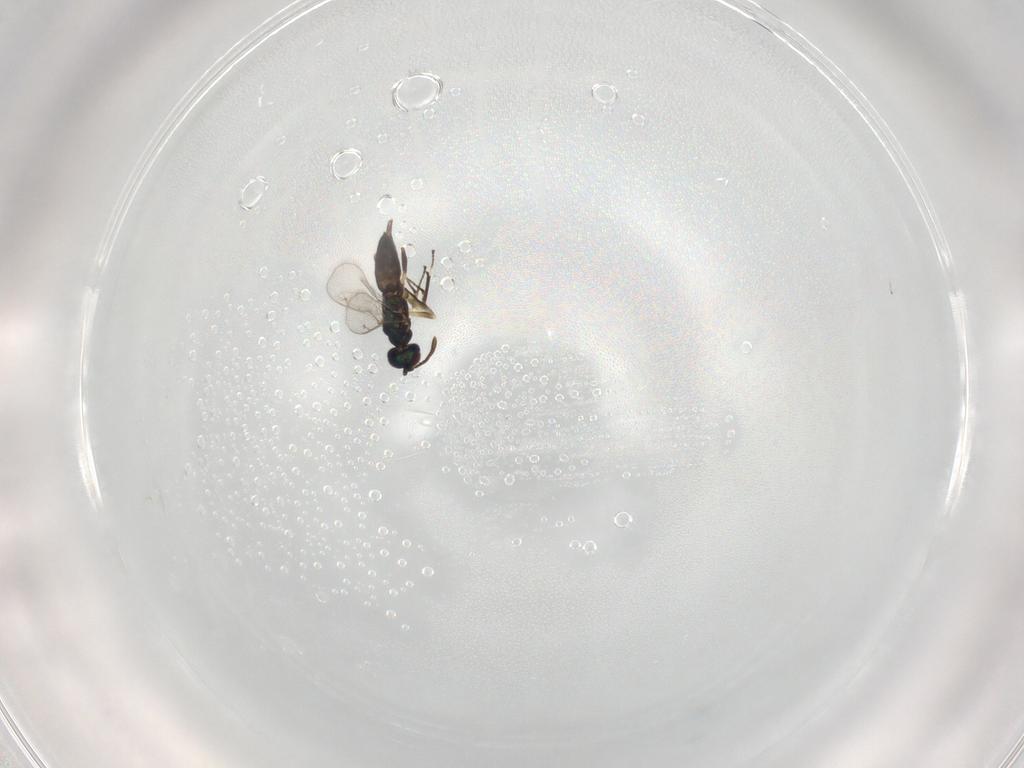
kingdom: Animalia
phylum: Arthropoda
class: Insecta
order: Hymenoptera
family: Eupelmidae
